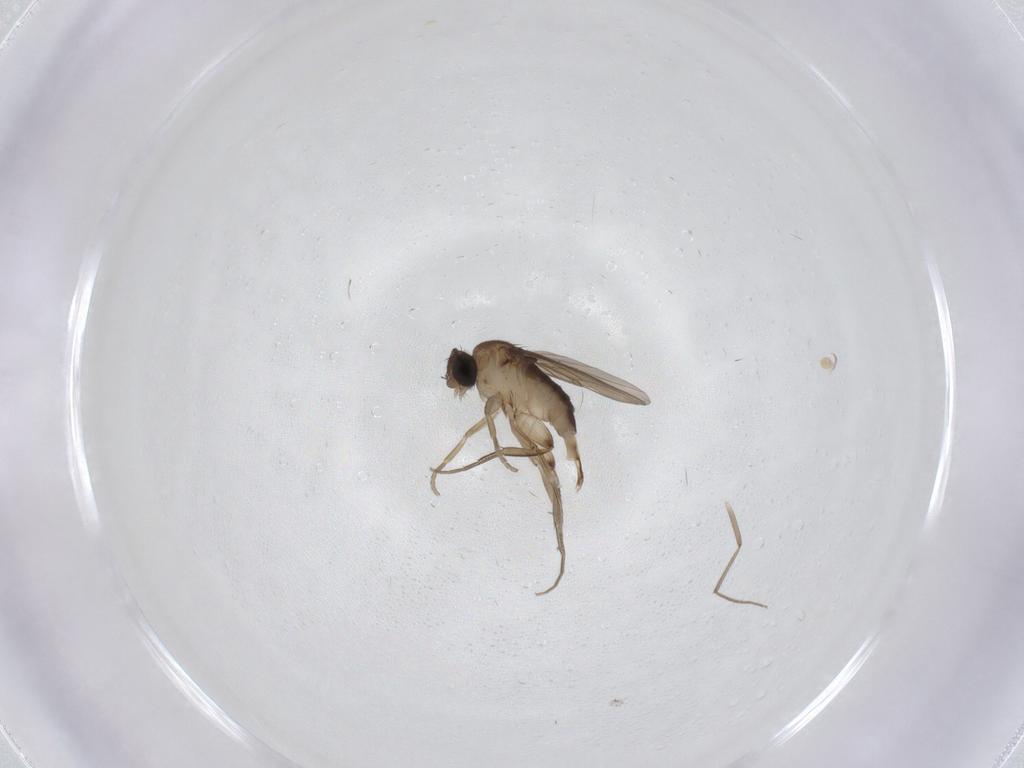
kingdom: Animalia
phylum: Arthropoda
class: Insecta
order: Diptera
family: Phoridae
